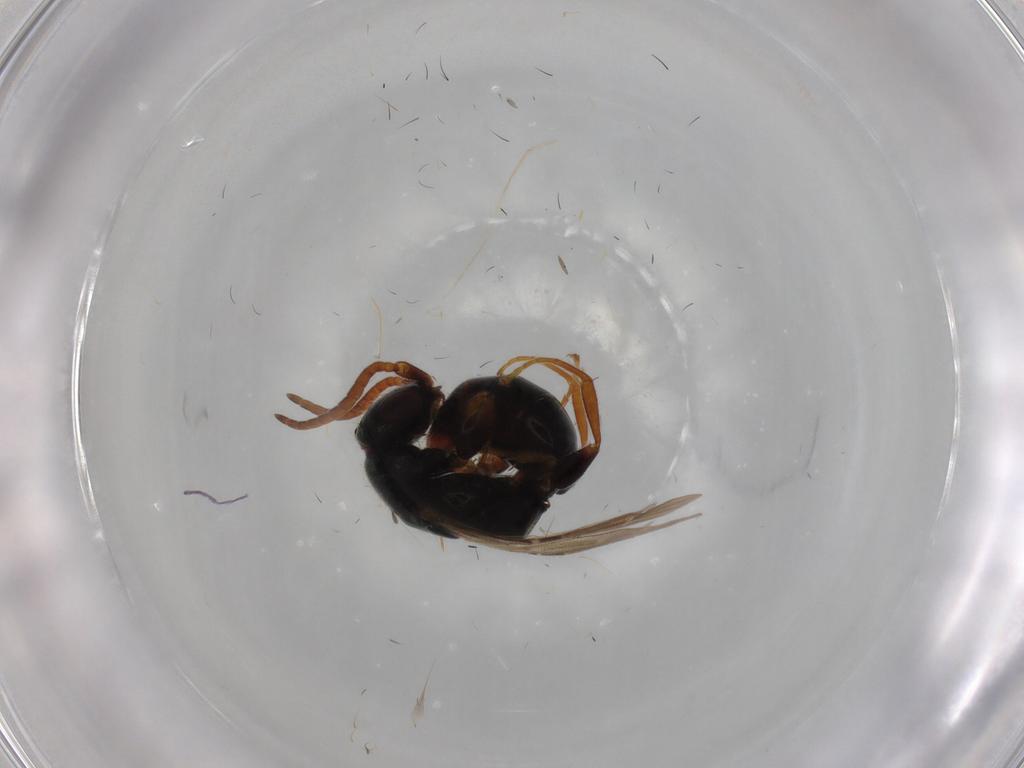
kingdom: Animalia
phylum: Arthropoda
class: Insecta
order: Hymenoptera
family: Bethylidae
